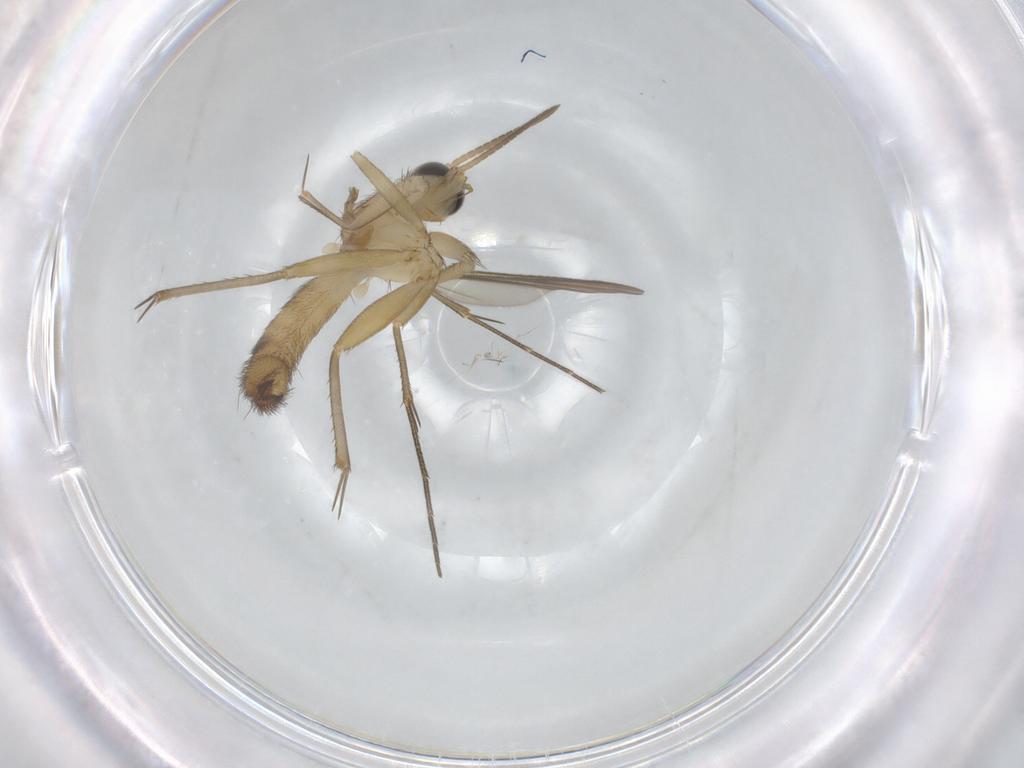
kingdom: Animalia
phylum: Arthropoda
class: Insecta
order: Diptera
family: Mycetophilidae
